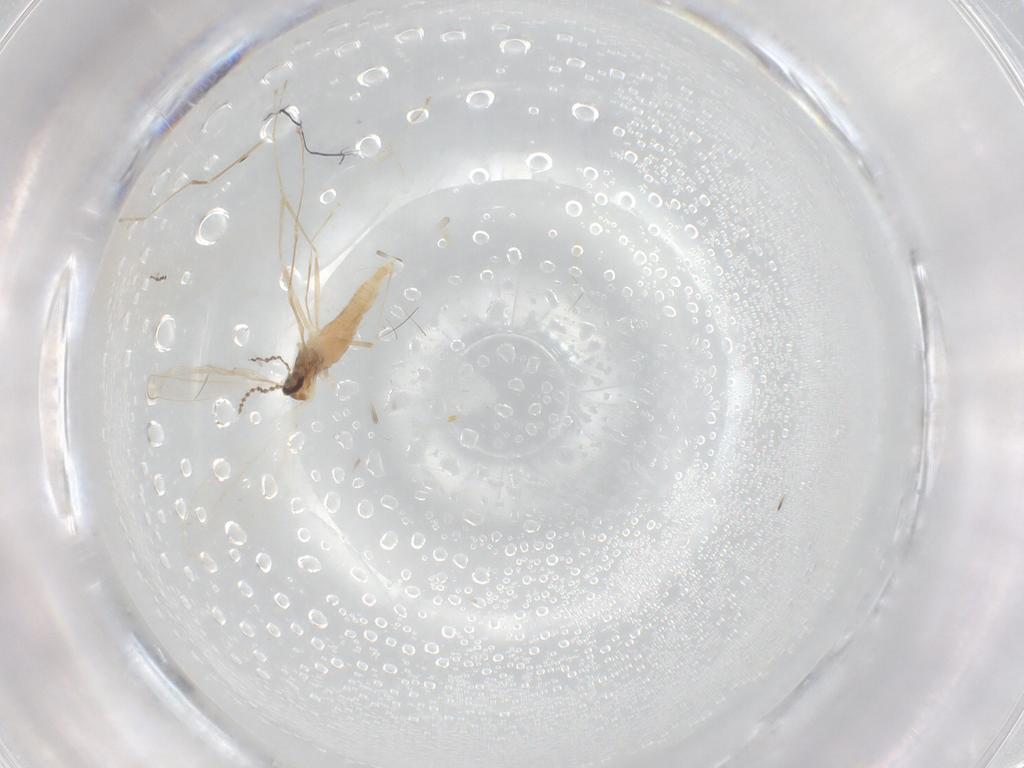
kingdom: Animalia
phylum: Arthropoda
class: Insecta
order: Diptera
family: Cecidomyiidae
